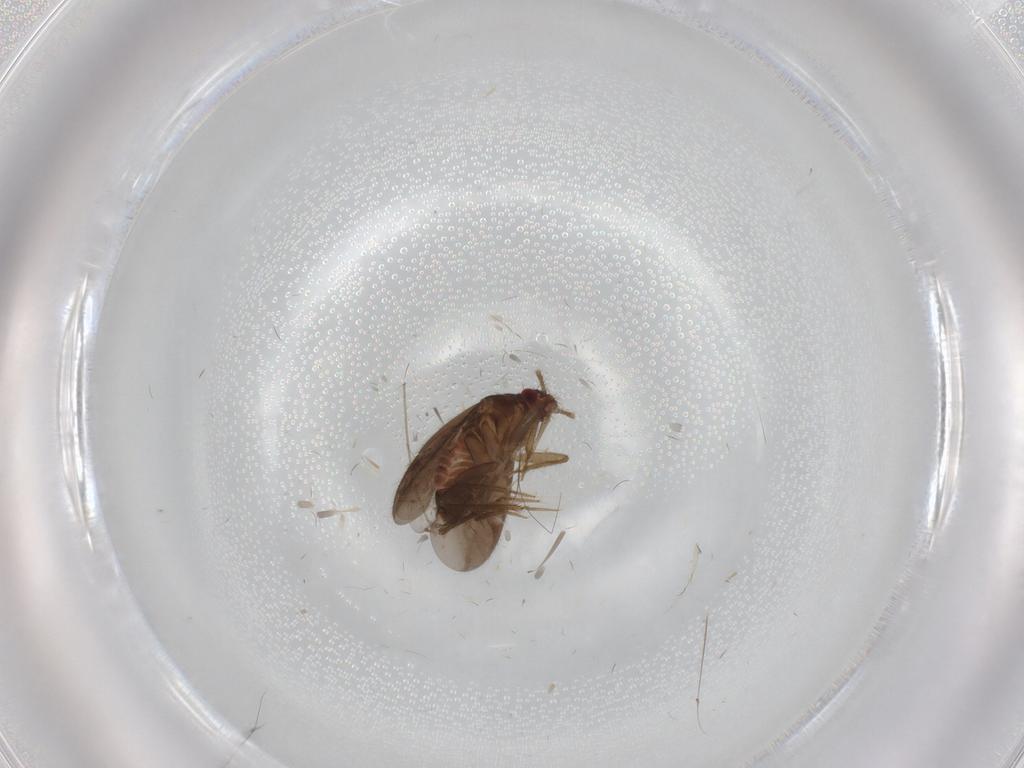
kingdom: Animalia
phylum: Arthropoda
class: Insecta
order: Hemiptera
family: Ceratocombidae
